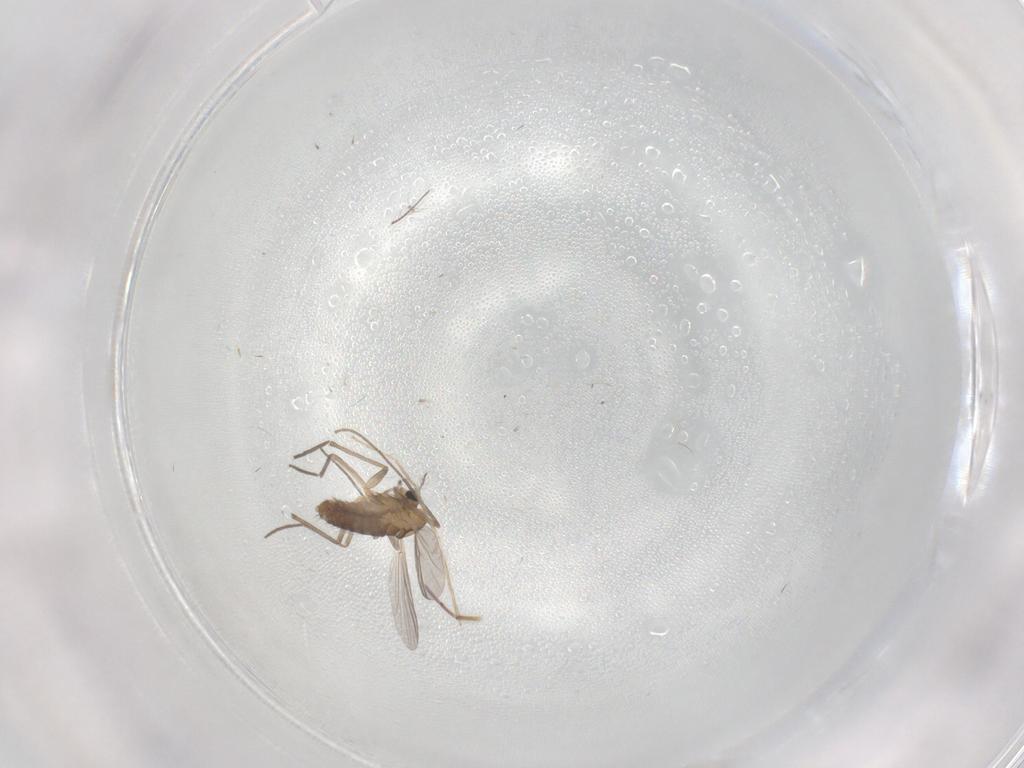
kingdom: Animalia
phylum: Arthropoda
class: Insecta
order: Diptera
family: Chironomidae
